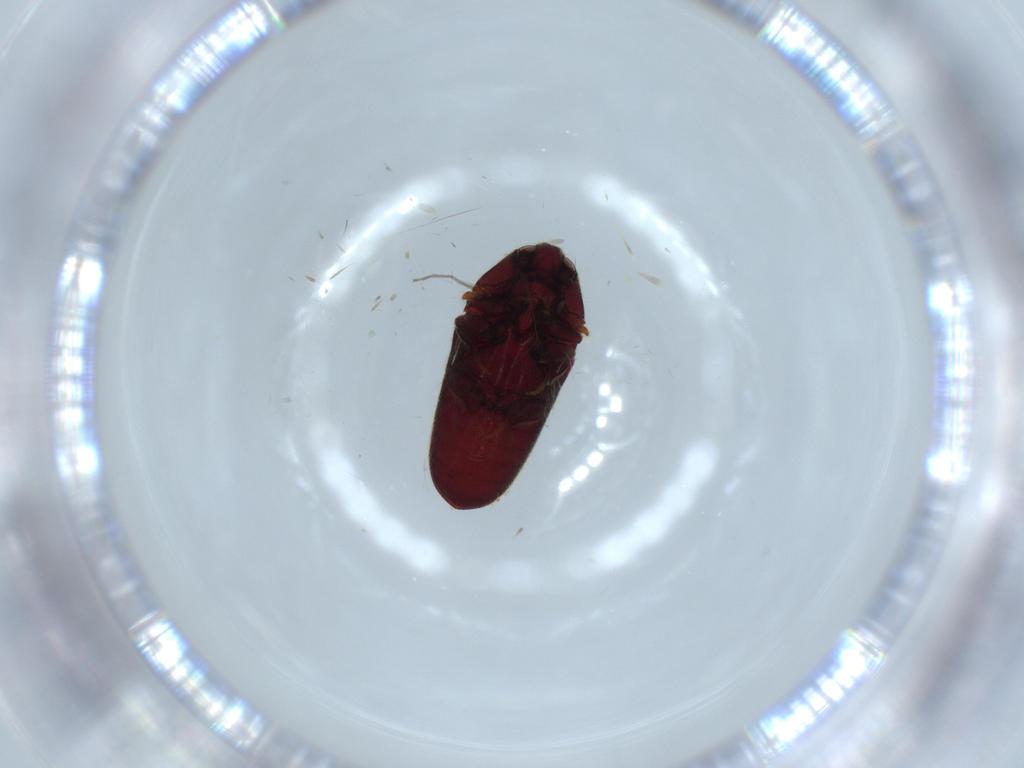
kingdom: Animalia
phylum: Arthropoda
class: Insecta
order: Coleoptera
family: Throscidae
